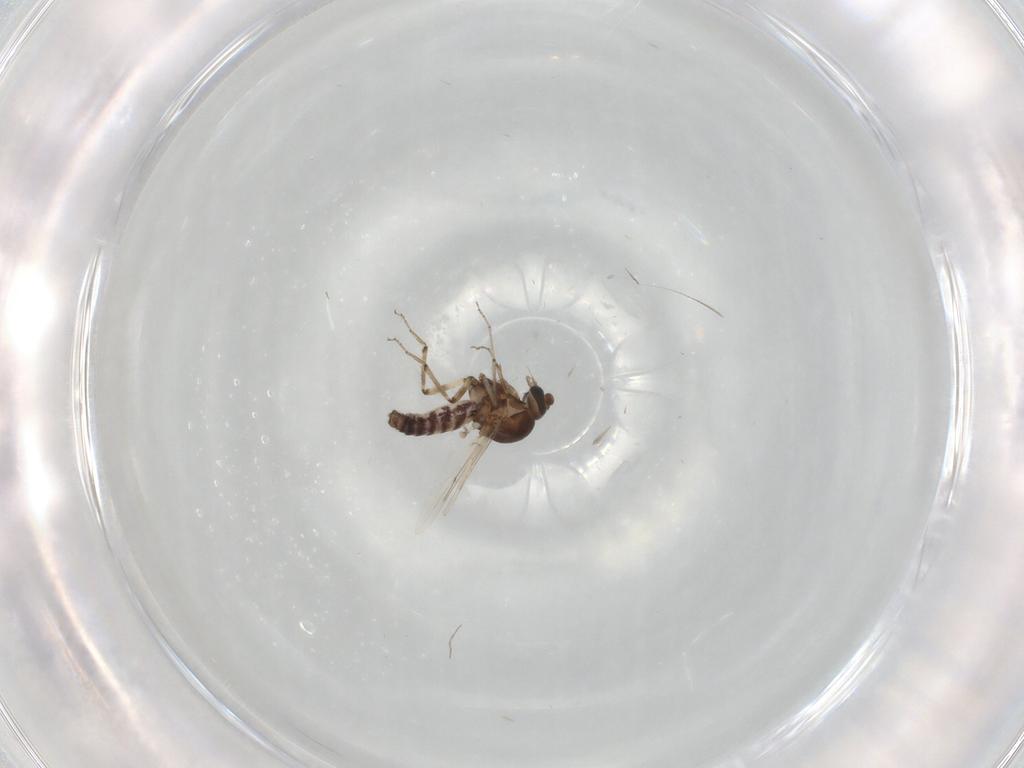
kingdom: Animalia
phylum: Arthropoda
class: Insecta
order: Diptera
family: Ceratopogonidae
